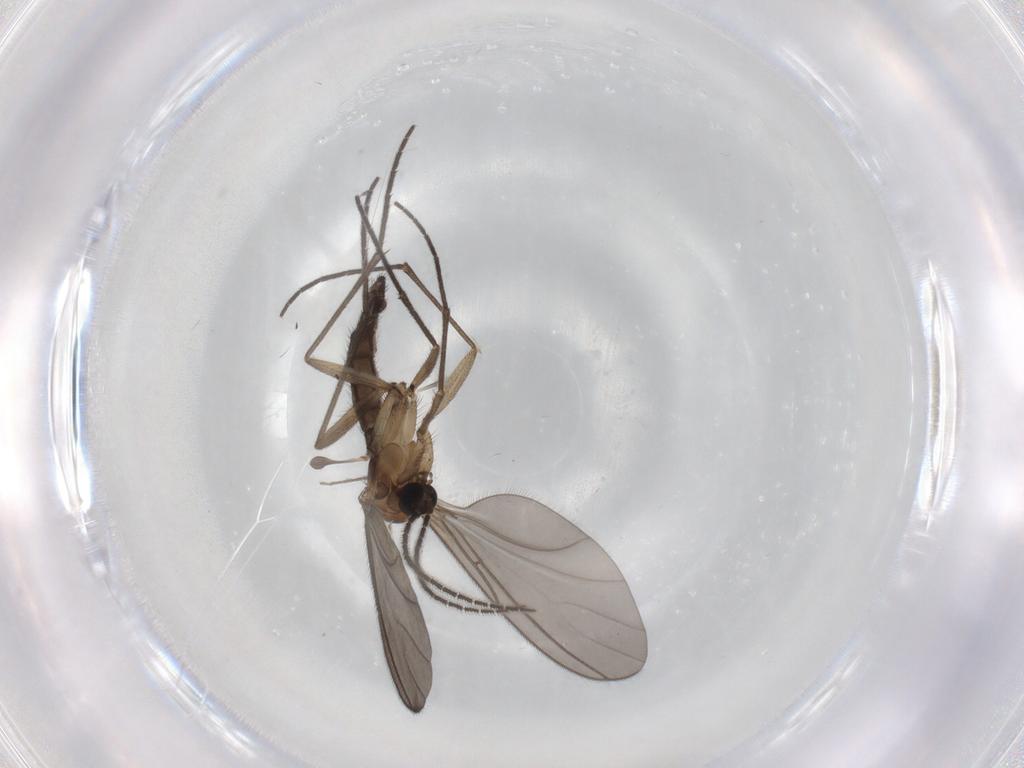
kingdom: Animalia
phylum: Arthropoda
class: Insecta
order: Diptera
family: Sciaridae
